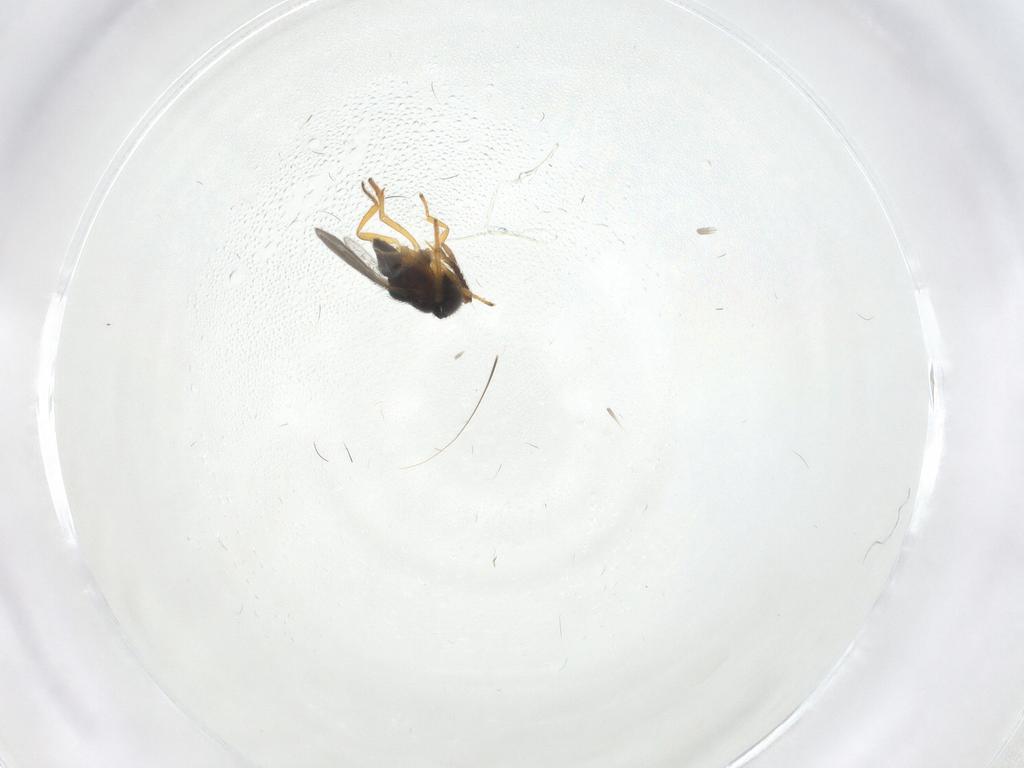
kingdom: Animalia
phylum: Arthropoda
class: Insecta
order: Hymenoptera
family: Encyrtidae
